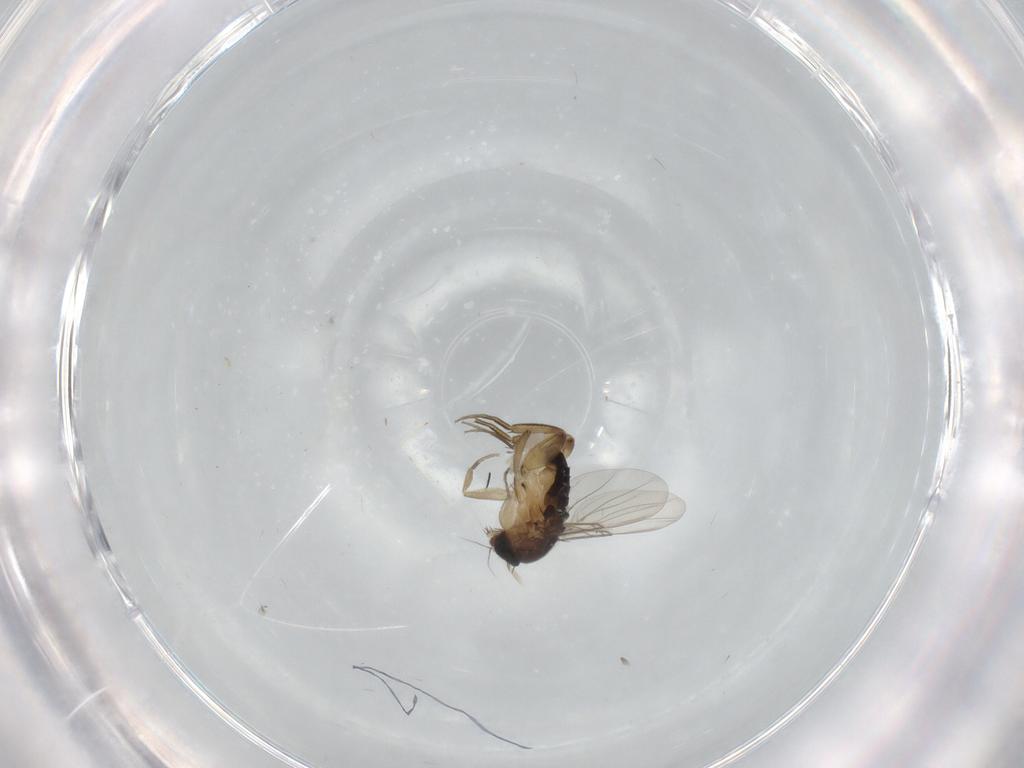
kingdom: Animalia
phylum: Arthropoda
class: Insecta
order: Diptera
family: Phoridae
